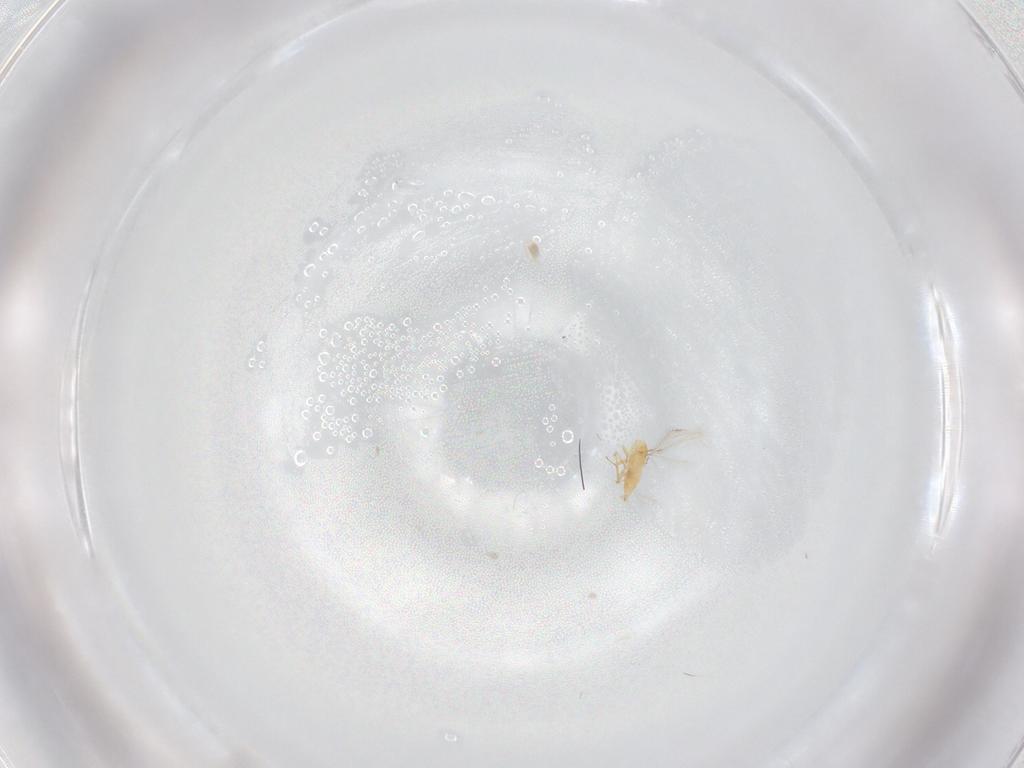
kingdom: Animalia
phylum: Arthropoda
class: Insecta
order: Hymenoptera
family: Mymaridae
